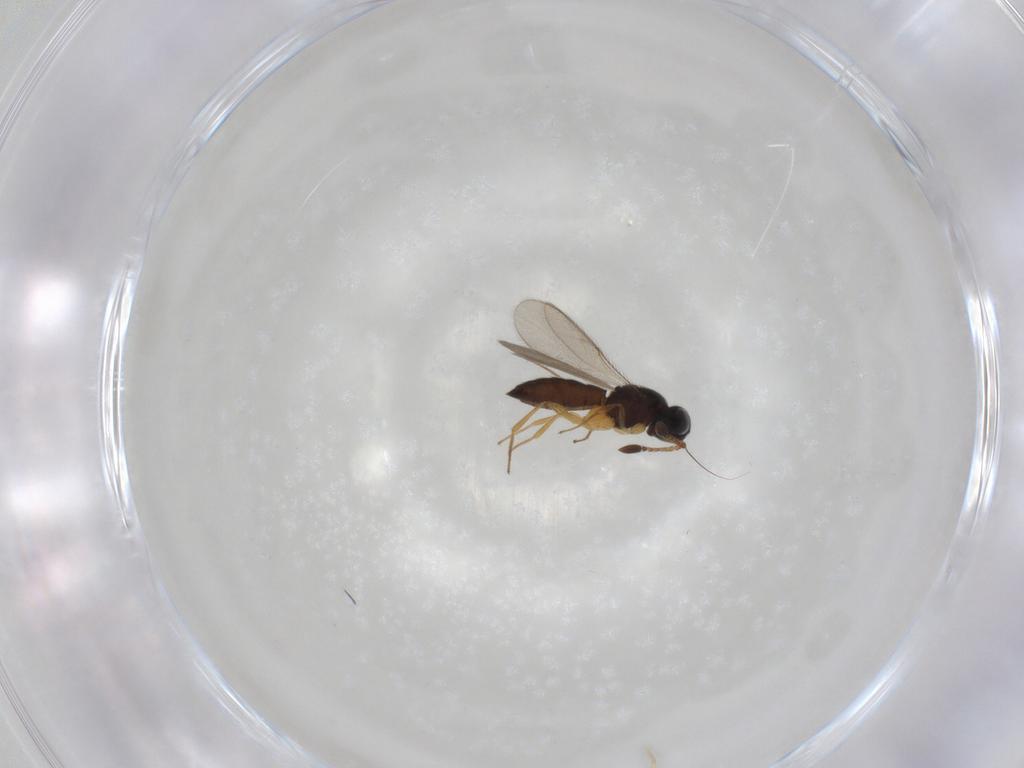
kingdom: Animalia
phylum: Arthropoda
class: Insecta
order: Hymenoptera
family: Scelionidae
